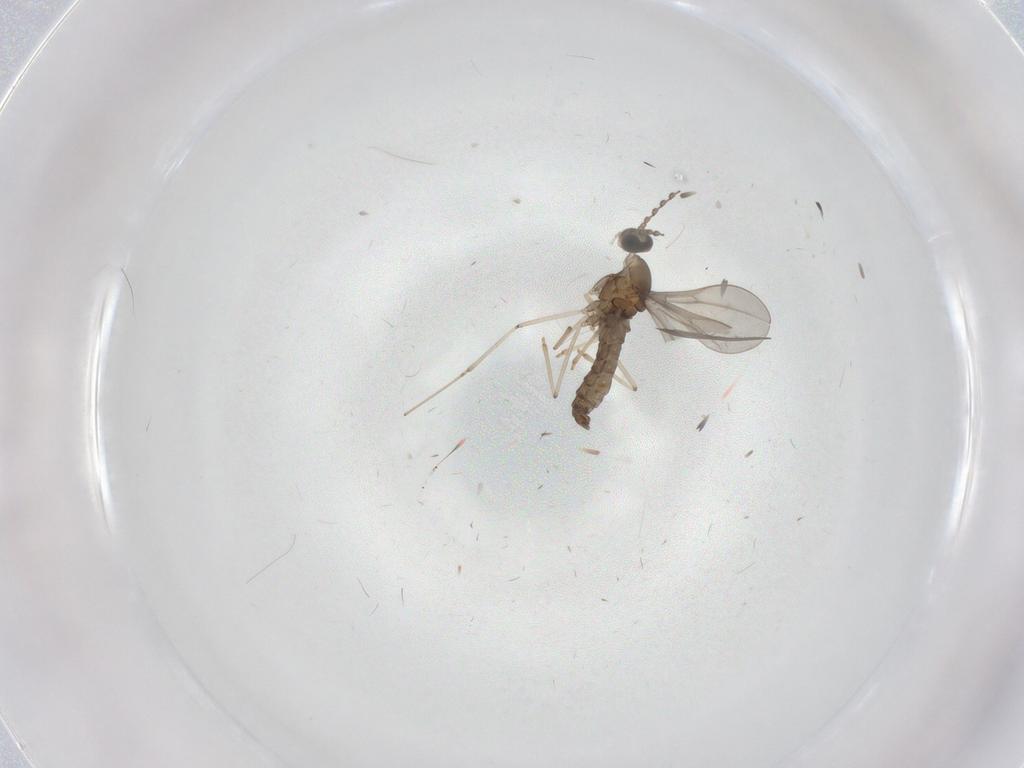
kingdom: Animalia
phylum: Arthropoda
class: Insecta
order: Diptera
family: Cecidomyiidae
